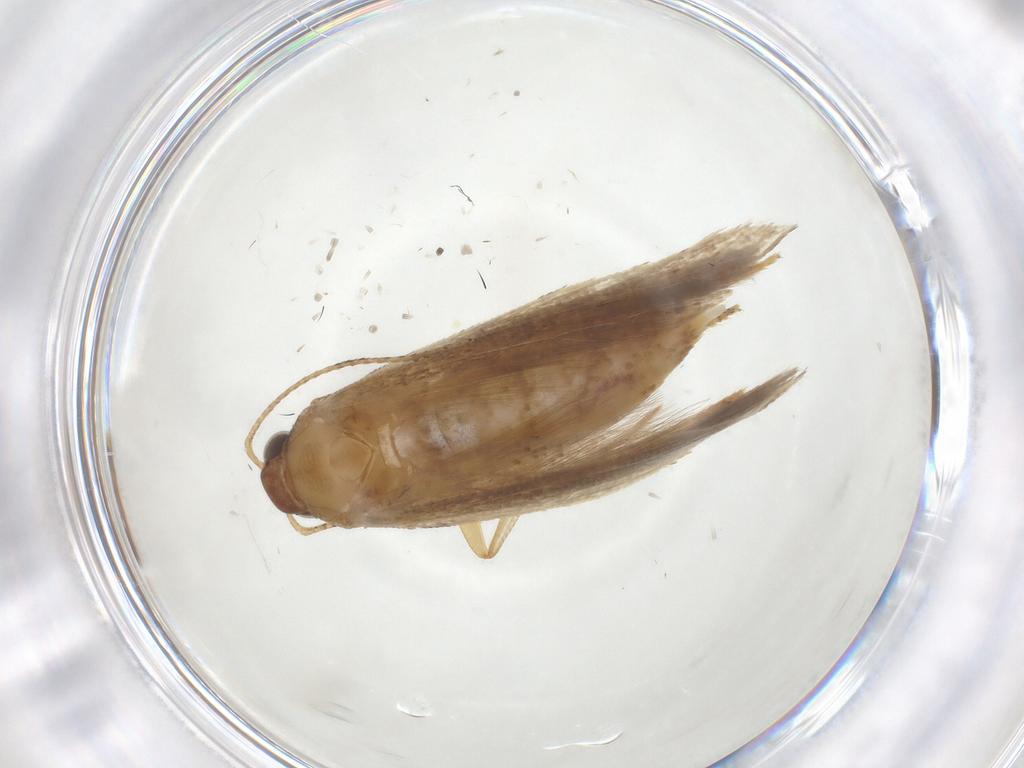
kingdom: Animalia
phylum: Arthropoda
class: Insecta
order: Lepidoptera
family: Gelechiidae
